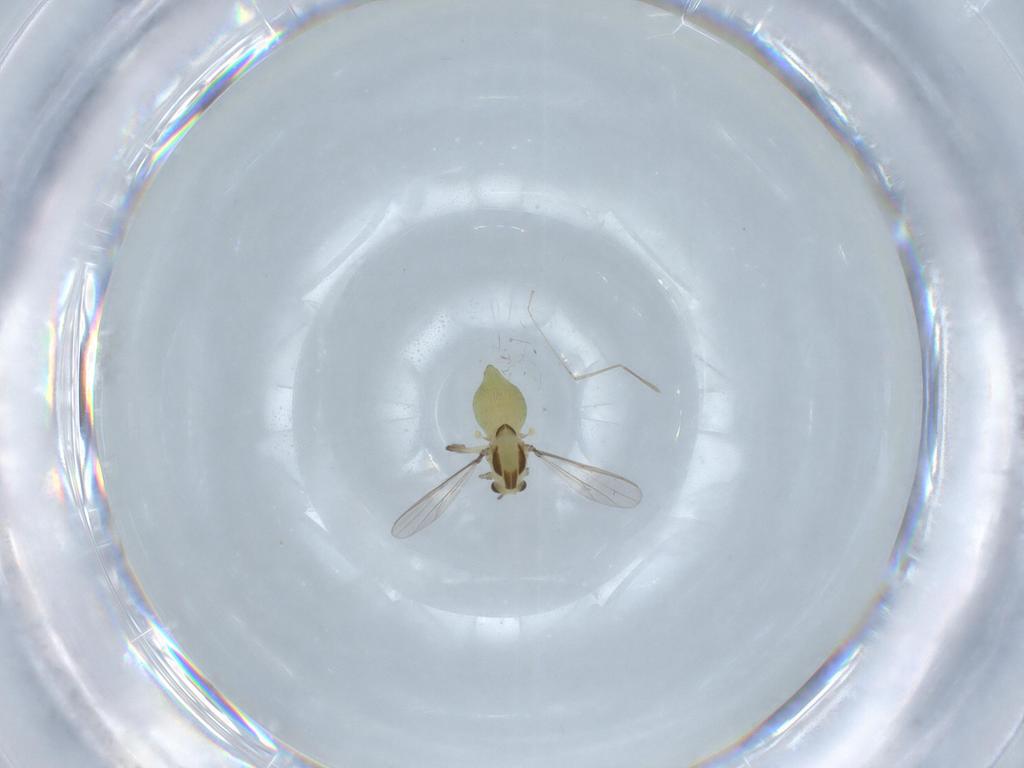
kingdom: Animalia
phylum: Arthropoda
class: Insecta
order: Diptera
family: Chironomidae
